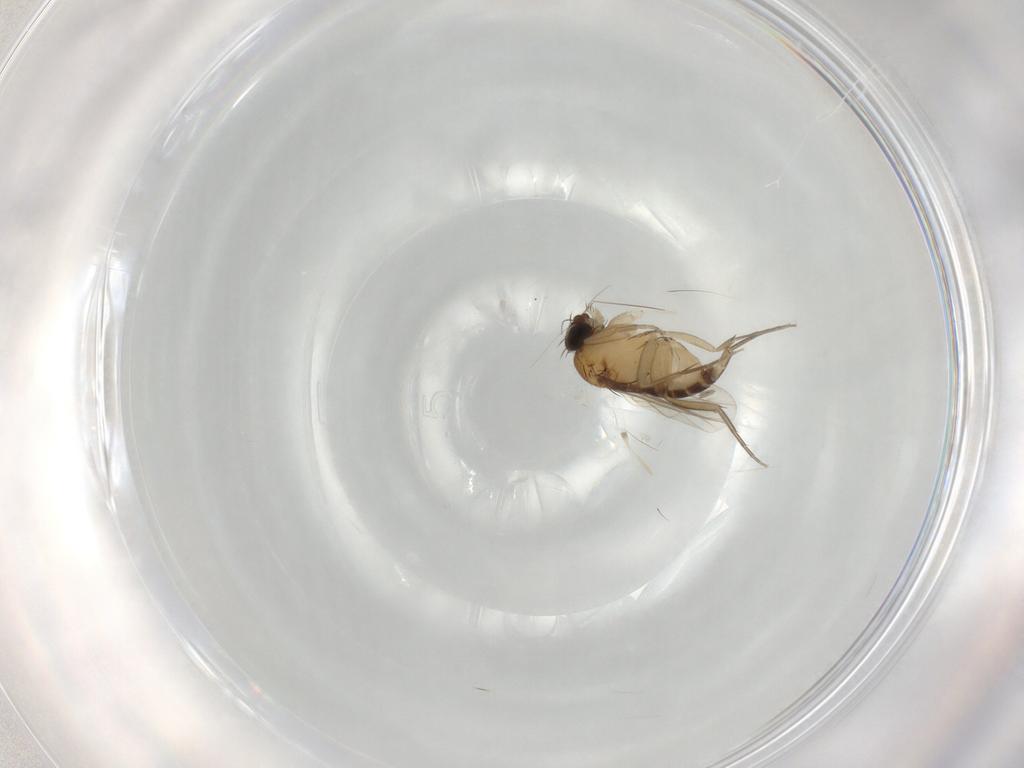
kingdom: Animalia
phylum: Arthropoda
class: Insecta
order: Diptera
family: Phoridae
